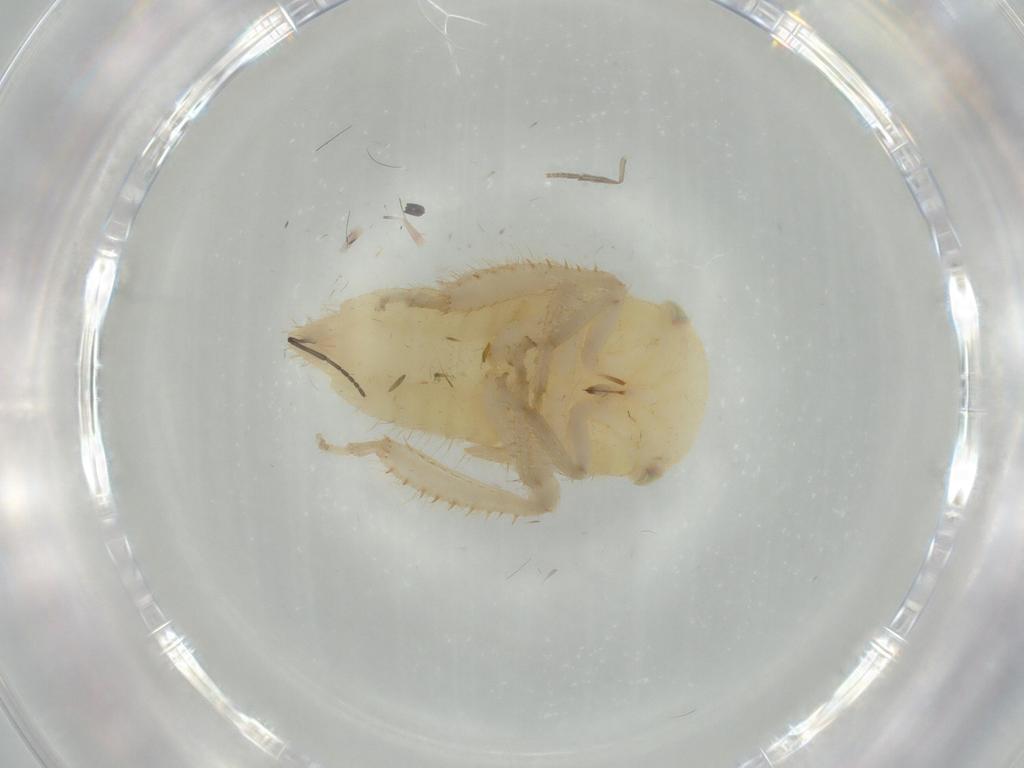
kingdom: Animalia
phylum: Arthropoda
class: Insecta
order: Hemiptera
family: Cicadellidae
